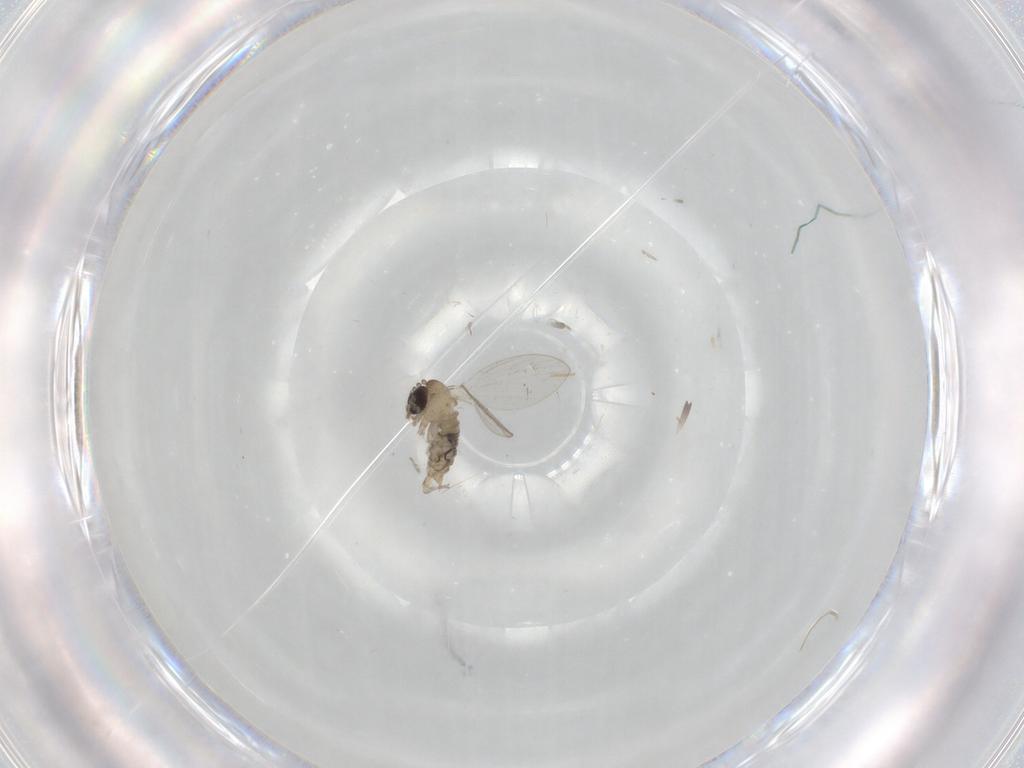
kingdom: Animalia
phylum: Arthropoda
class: Insecta
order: Diptera
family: Psychodidae
